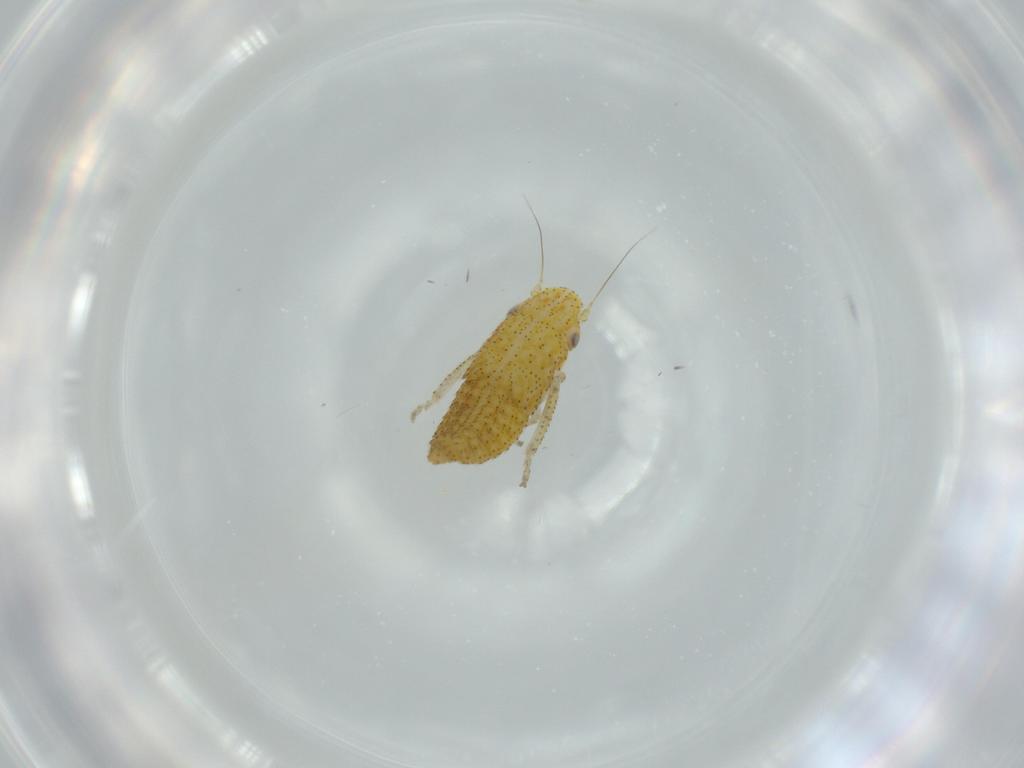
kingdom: Animalia
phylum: Arthropoda
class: Insecta
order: Hemiptera
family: Cicadellidae
